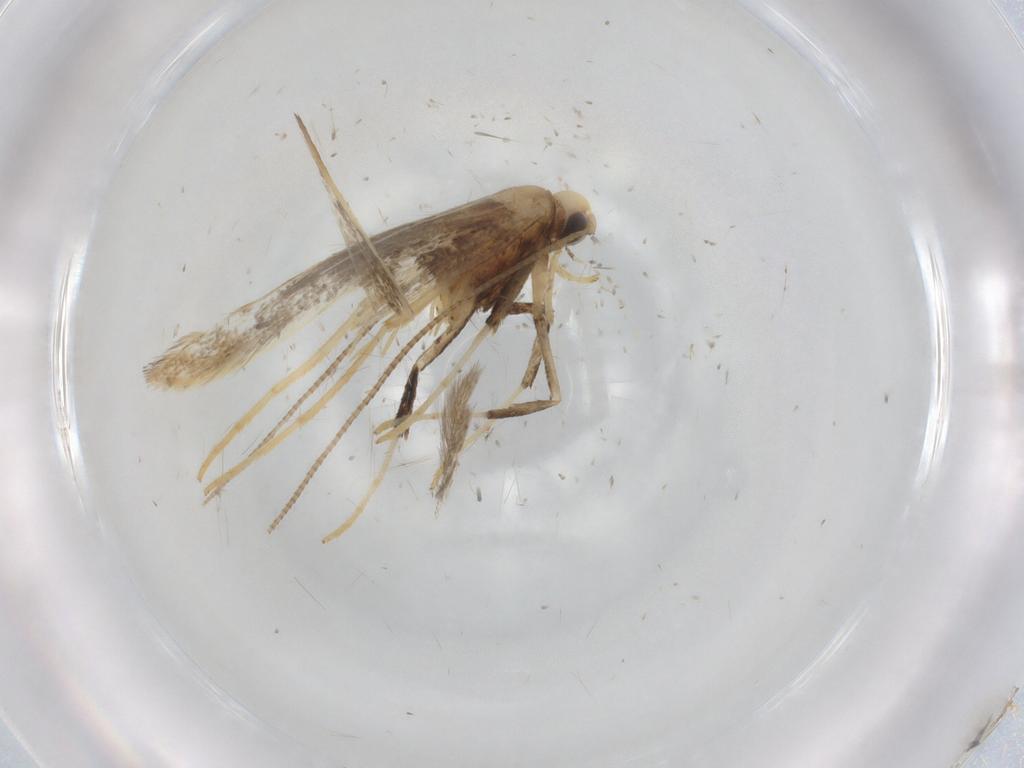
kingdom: Animalia
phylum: Arthropoda
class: Insecta
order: Lepidoptera
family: Gracillariidae
